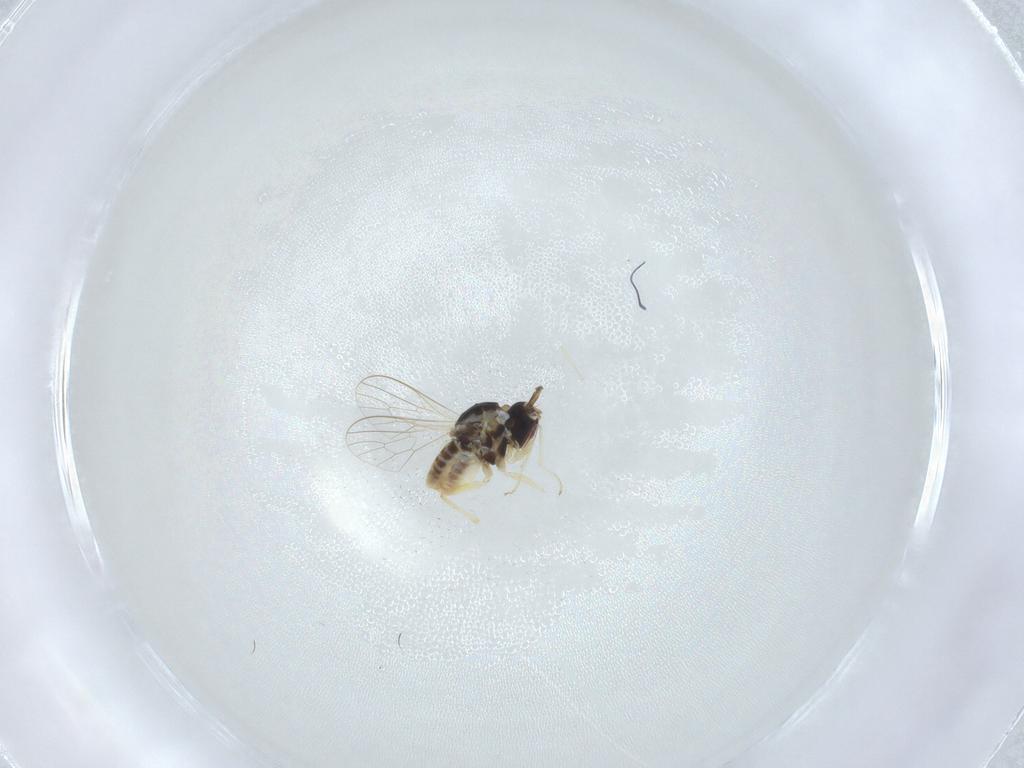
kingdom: Animalia
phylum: Arthropoda
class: Insecta
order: Diptera
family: Bombyliidae
